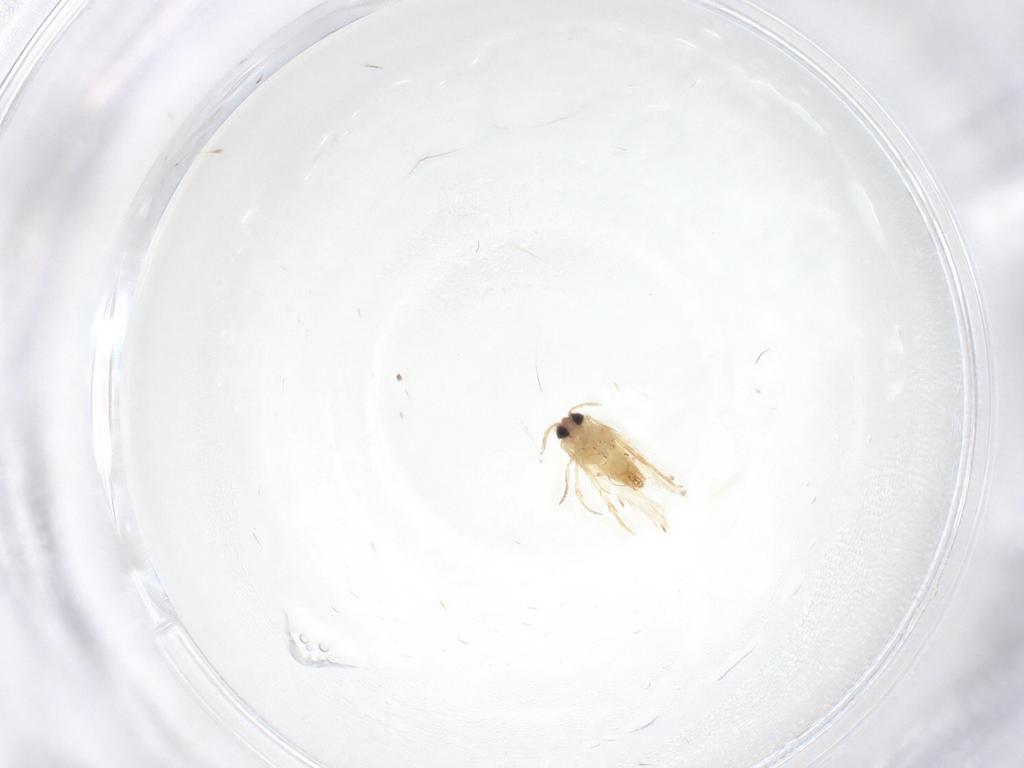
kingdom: Animalia
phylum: Arthropoda
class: Insecta
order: Lepidoptera
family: Crambidae
